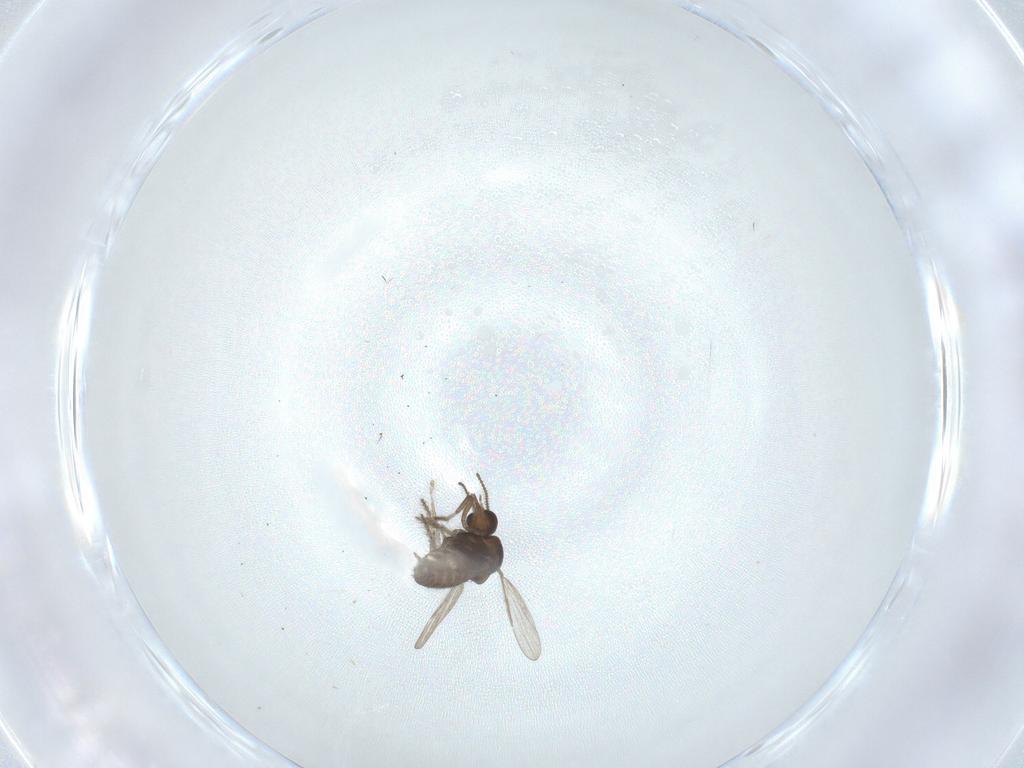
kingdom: Animalia
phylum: Arthropoda
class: Insecta
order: Diptera
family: Ceratopogonidae
